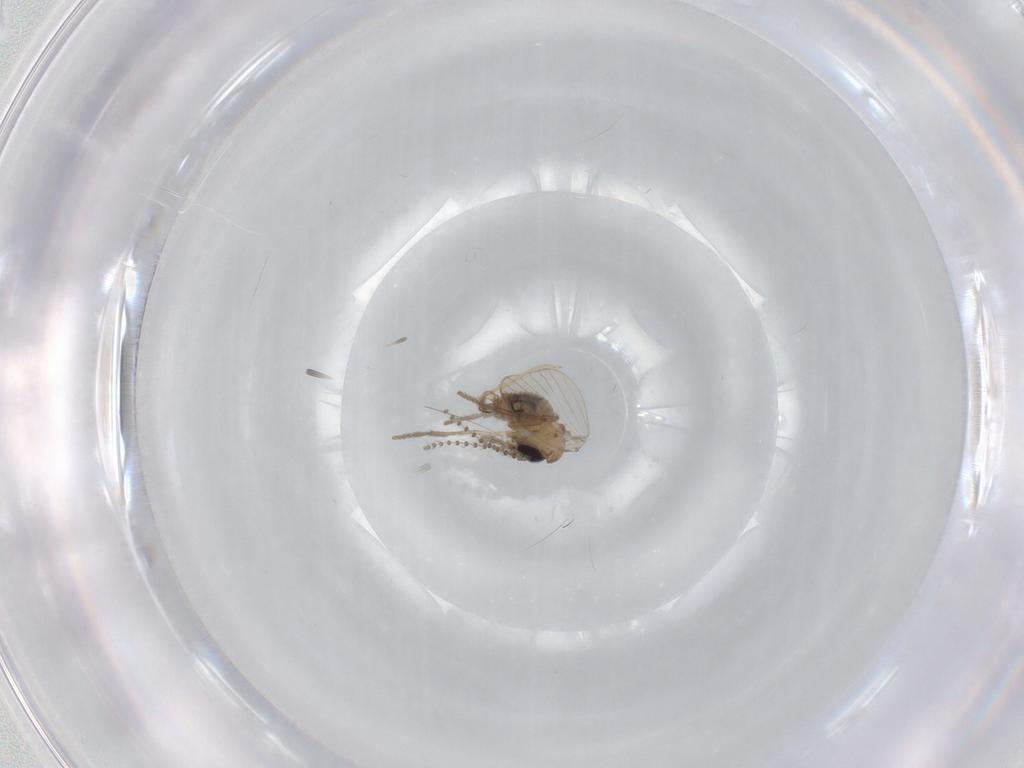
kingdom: Animalia
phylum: Arthropoda
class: Insecta
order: Diptera
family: Psychodidae
